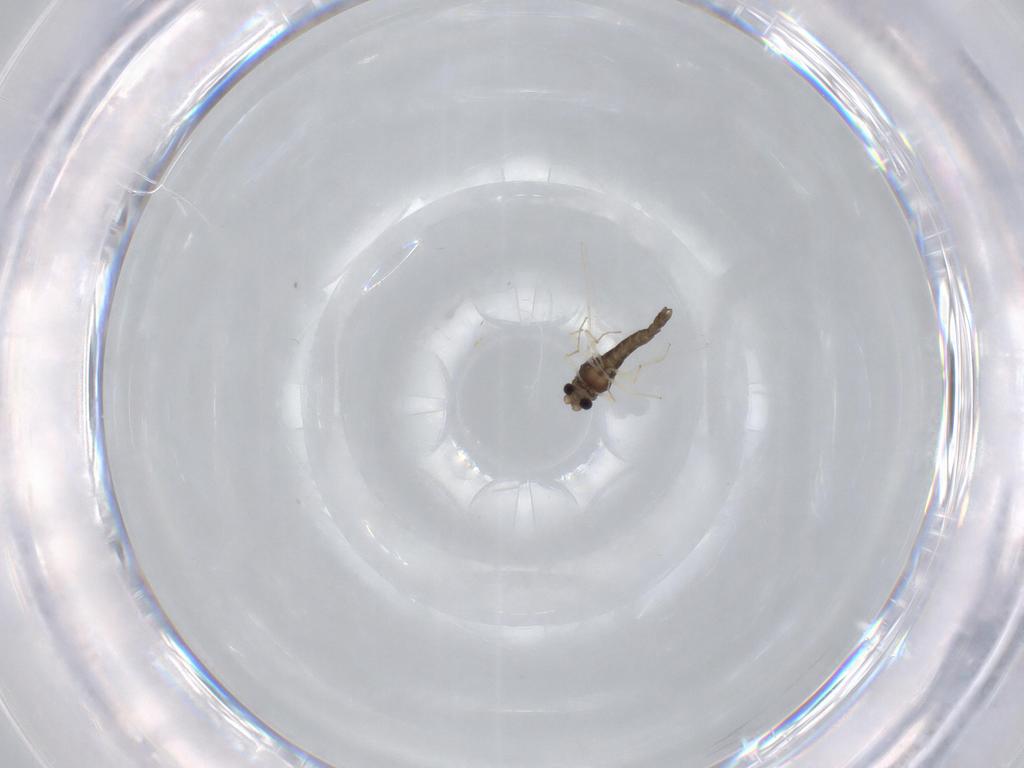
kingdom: Animalia
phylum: Arthropoda
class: Insecta
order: Diptera
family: Chironomidae
